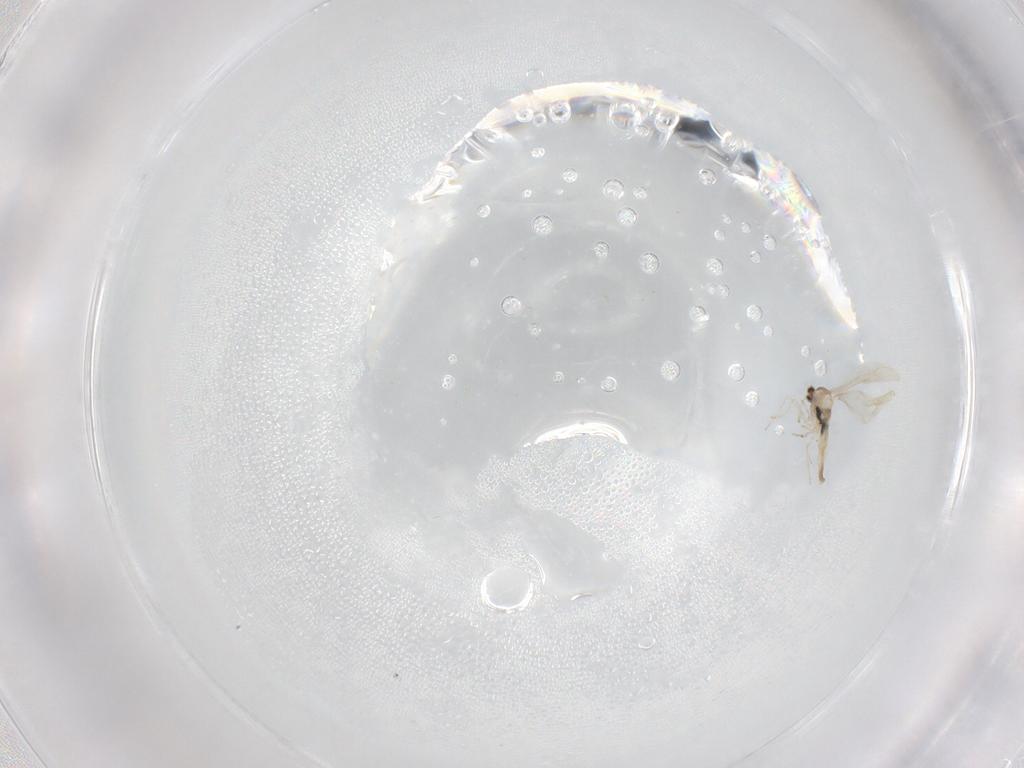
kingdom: Animalia
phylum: Arthropoda
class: Insecta
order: Diptera
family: Cecidomyiidae
